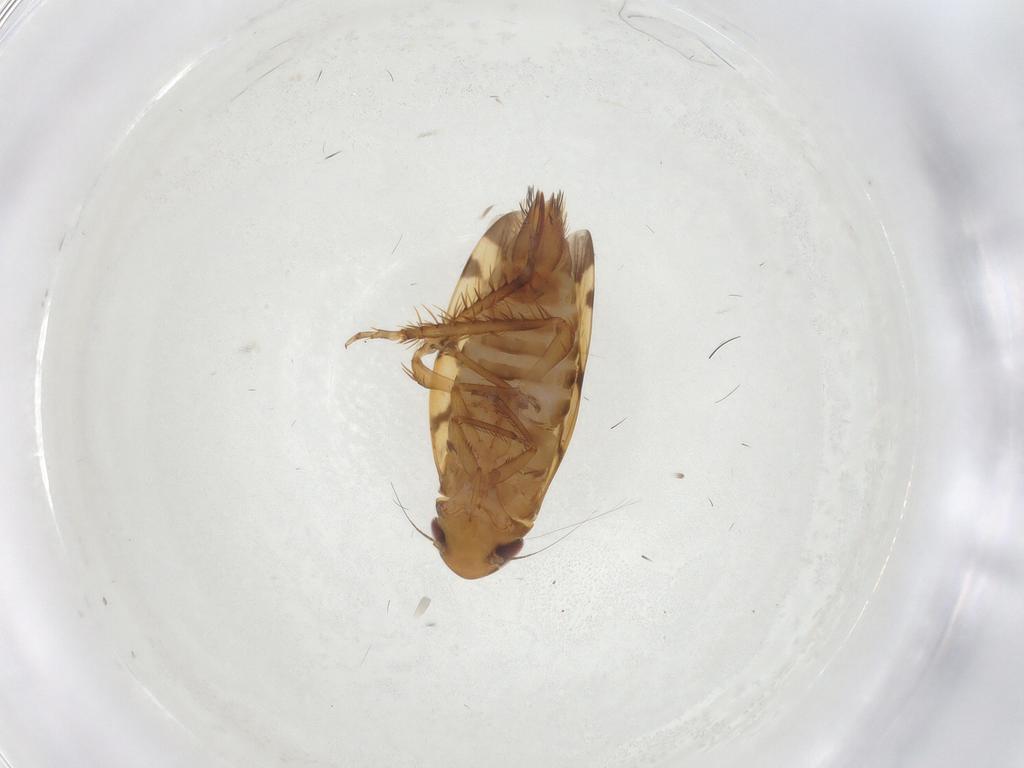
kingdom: Animalia
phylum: Arthropoda
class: Insecta
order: Hemiptera
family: Cicadellidae
